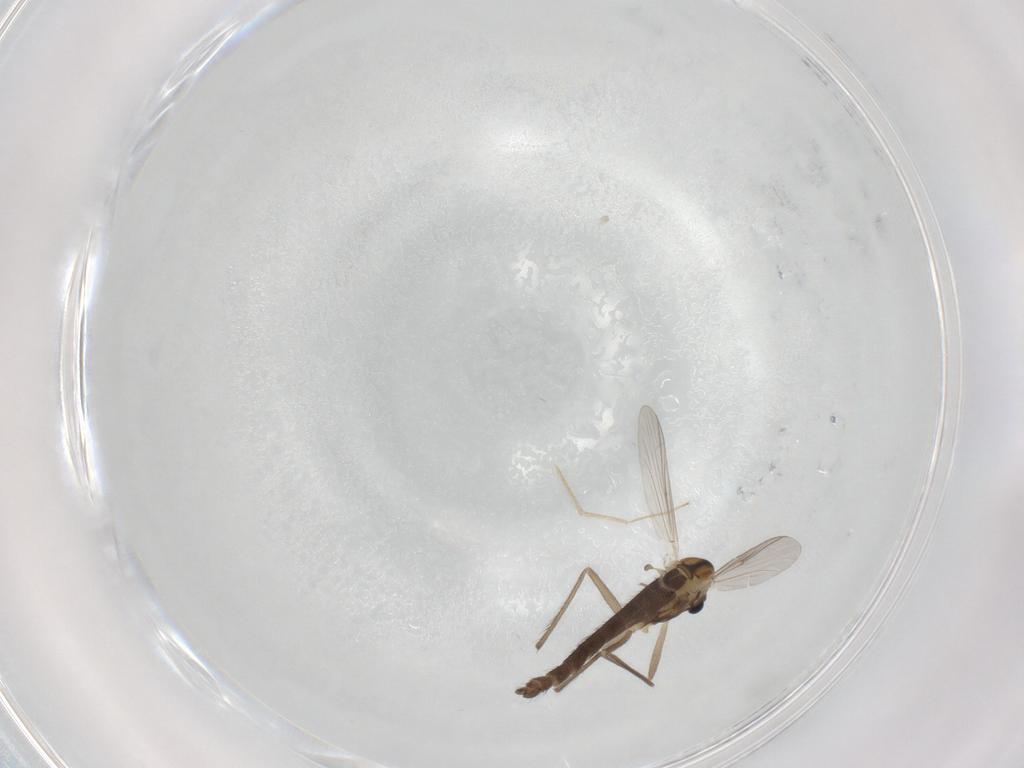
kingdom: Animalia
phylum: Arthropoda
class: Insecta
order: Diptera
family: Chironomidae
